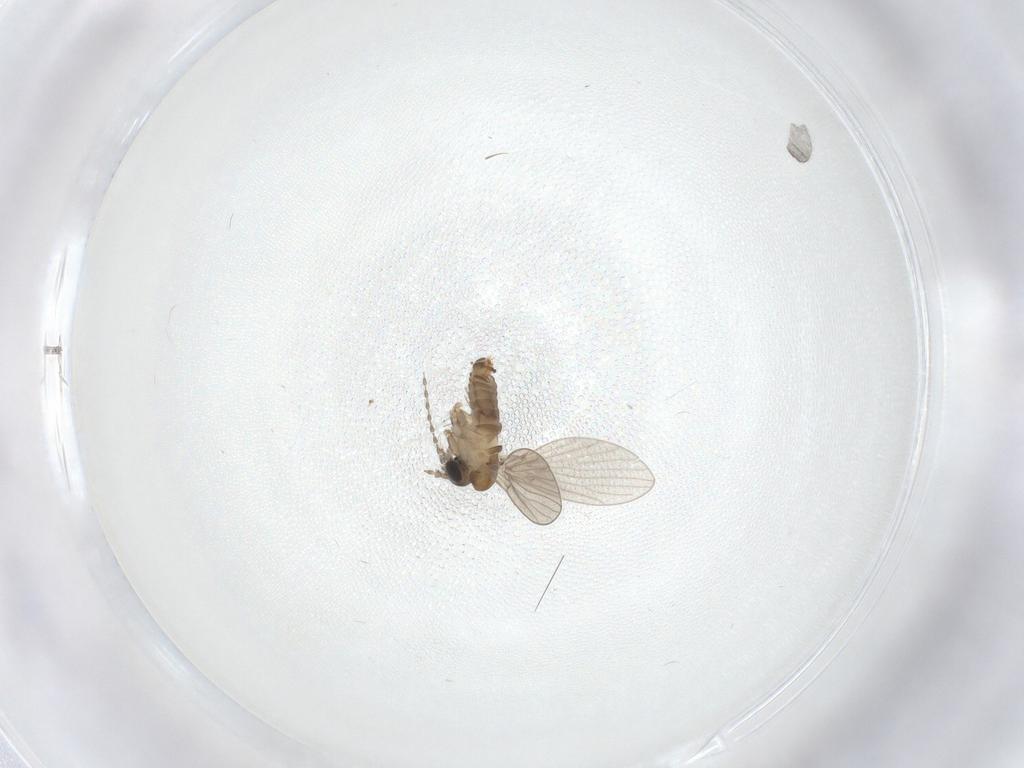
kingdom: Animalia
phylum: Arthropoda
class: Insecta
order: Diptera
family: Psychodidae
